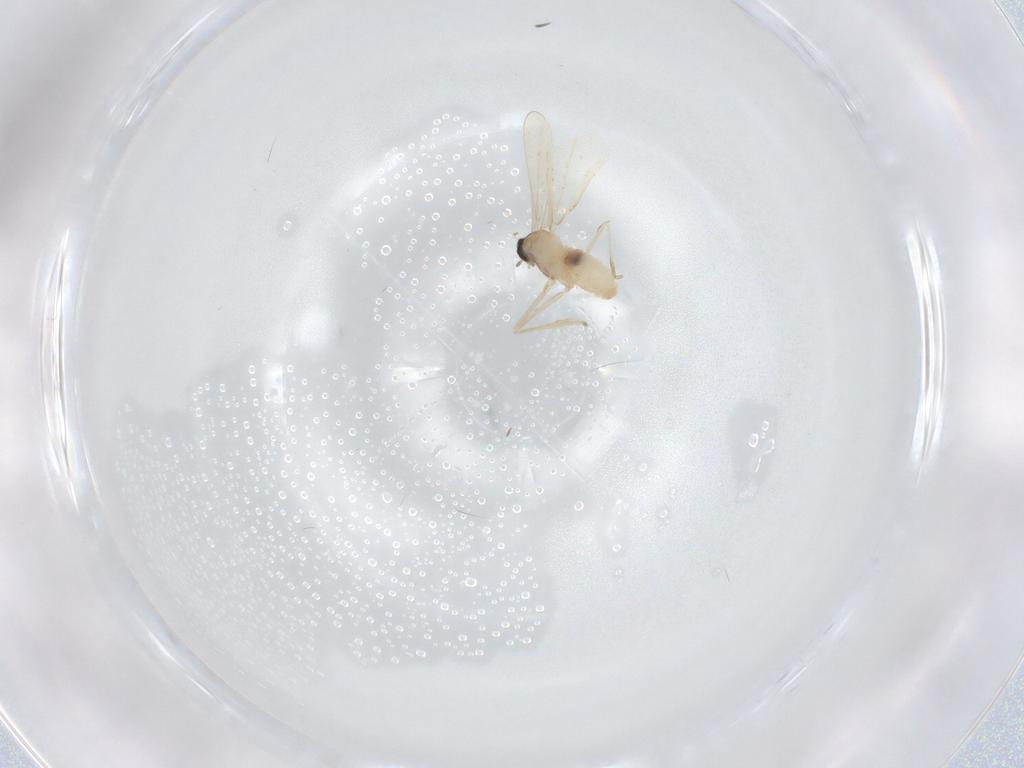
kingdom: Animalia
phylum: Arthropoda
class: Insecta
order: Diptera
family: Cecidomyiidae
